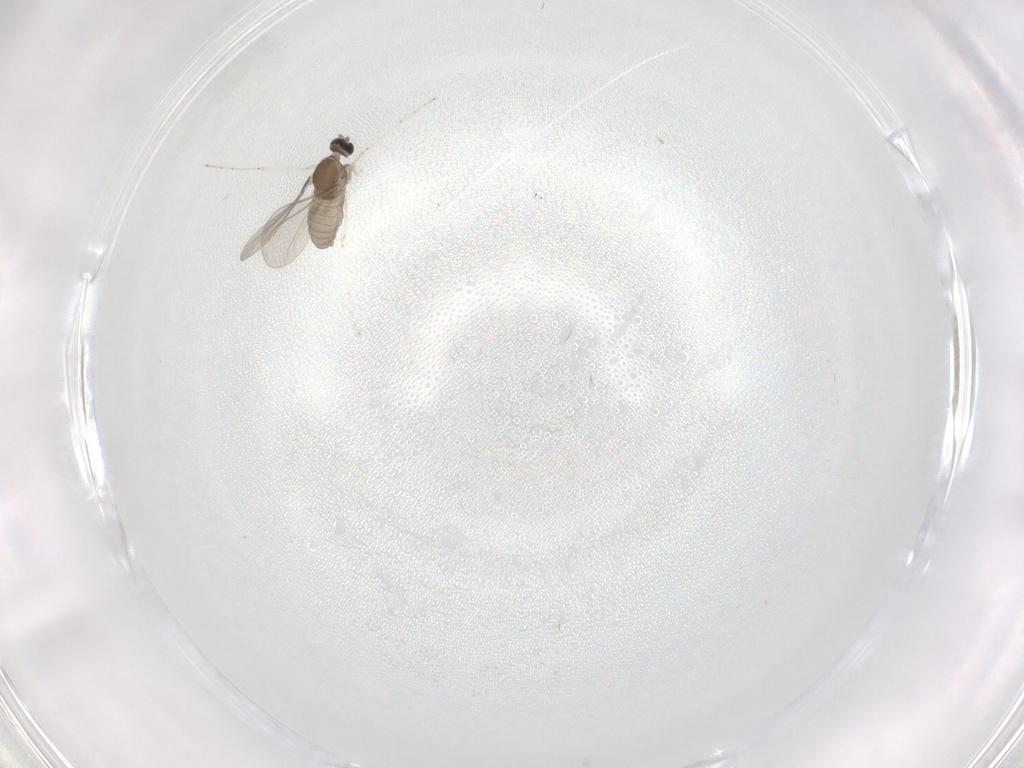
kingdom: Animalia
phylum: Arthropoda
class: Insecta
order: Diptera
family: Cecidomyiidae
